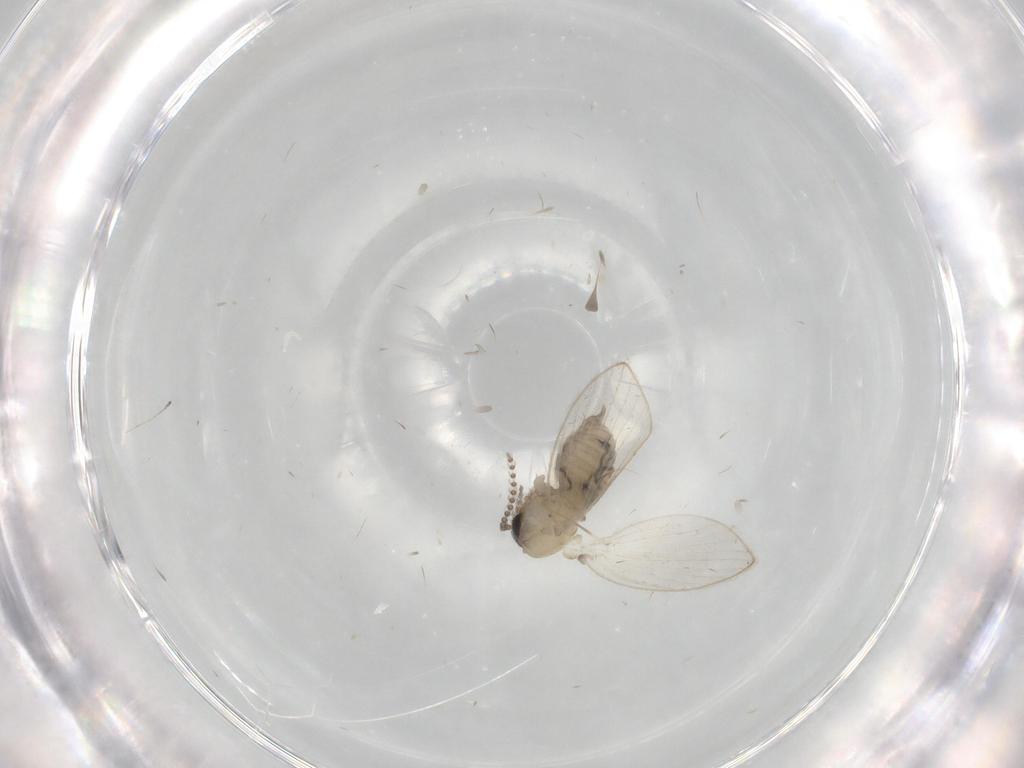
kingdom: Animalia
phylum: Arthropoda
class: Insecta
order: Diptera
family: Psychodidae
